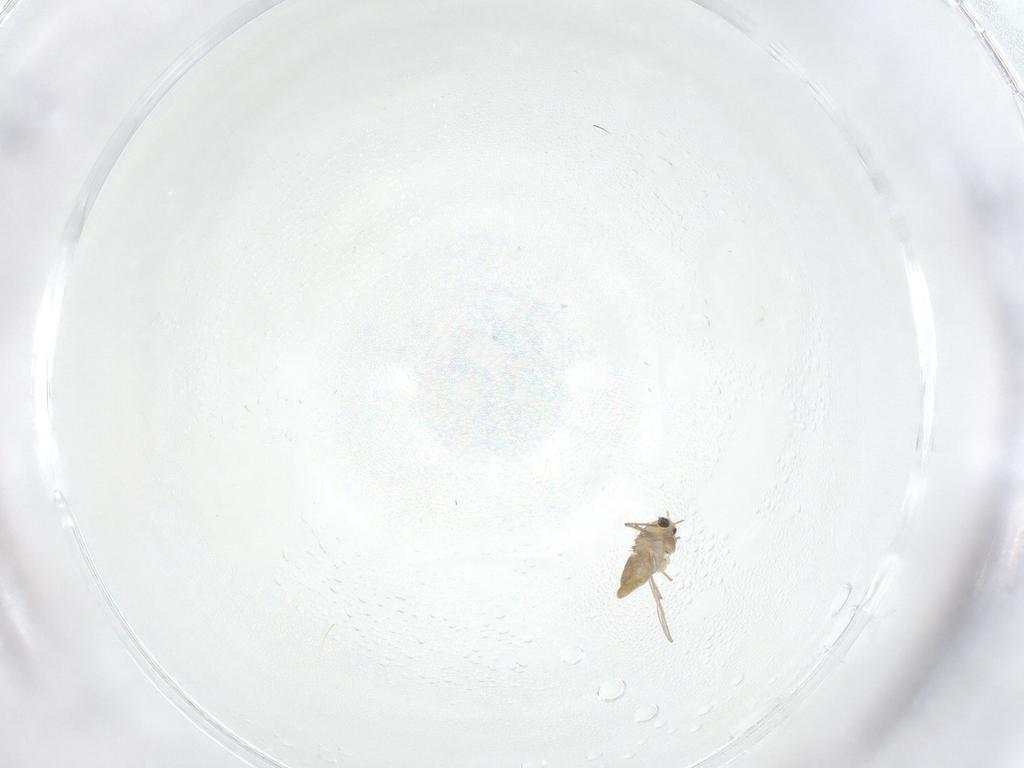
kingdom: Animalia
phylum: Arthropoda
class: Insecta
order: Diptera
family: Chironomidae
